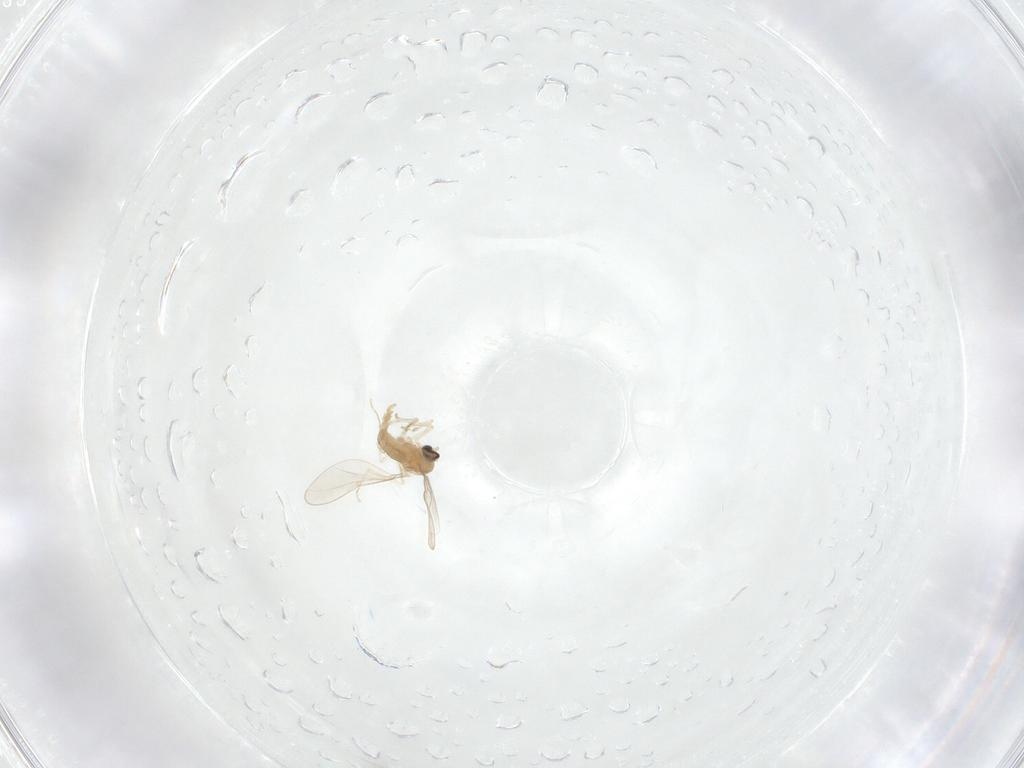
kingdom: Animalia
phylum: Arthropoda
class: Insecta
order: Diptera
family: Cecidomyiidae
